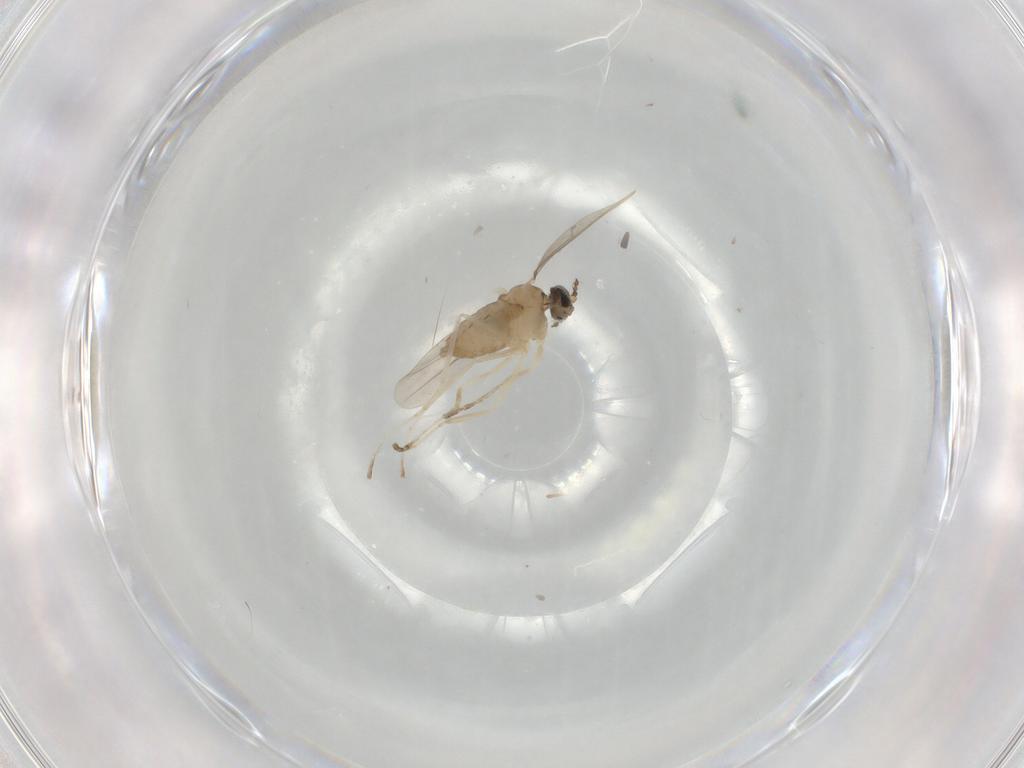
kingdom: Animalia
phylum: Arthropoda
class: Insecta
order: Diptera
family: Cecidomyiidae
